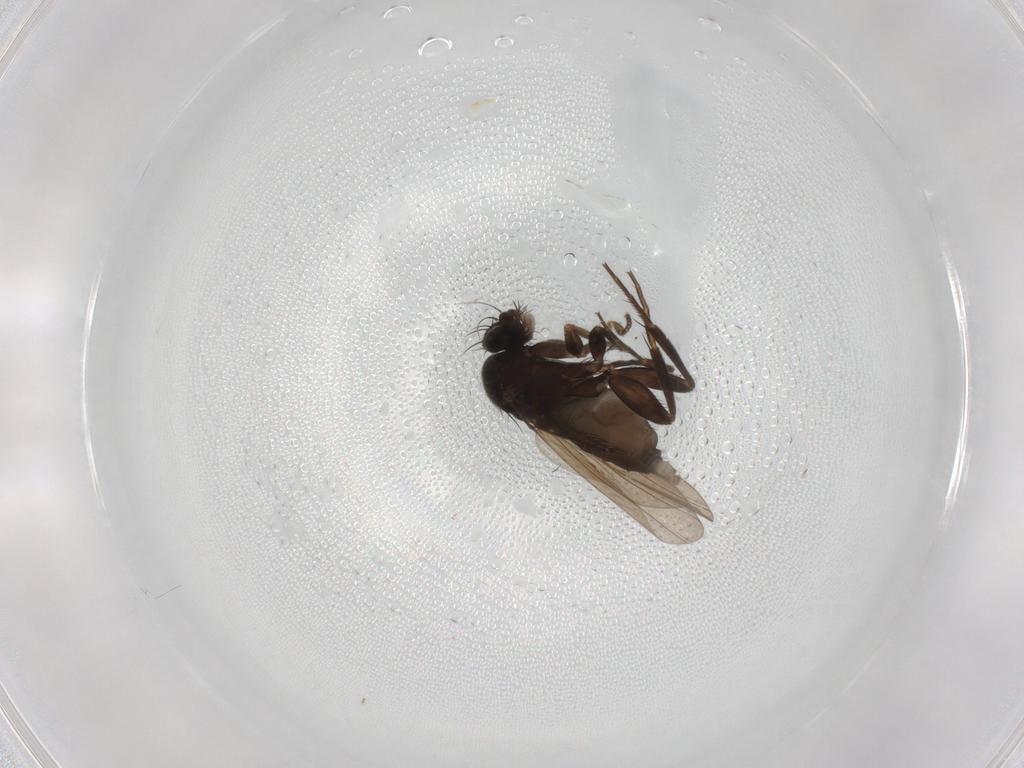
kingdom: Animalia
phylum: Arthropoda
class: Insecta
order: Diptera
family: Phoridae
